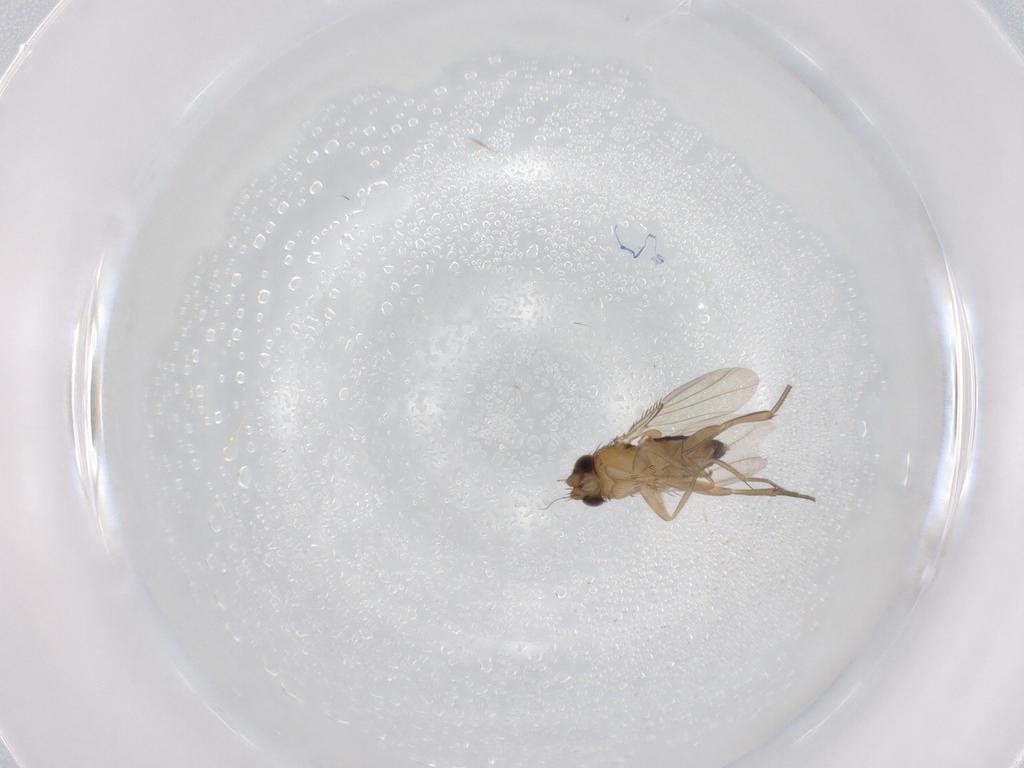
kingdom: Animalia
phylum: Arthropoda
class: Insecta
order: Diptera
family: Phoridae
